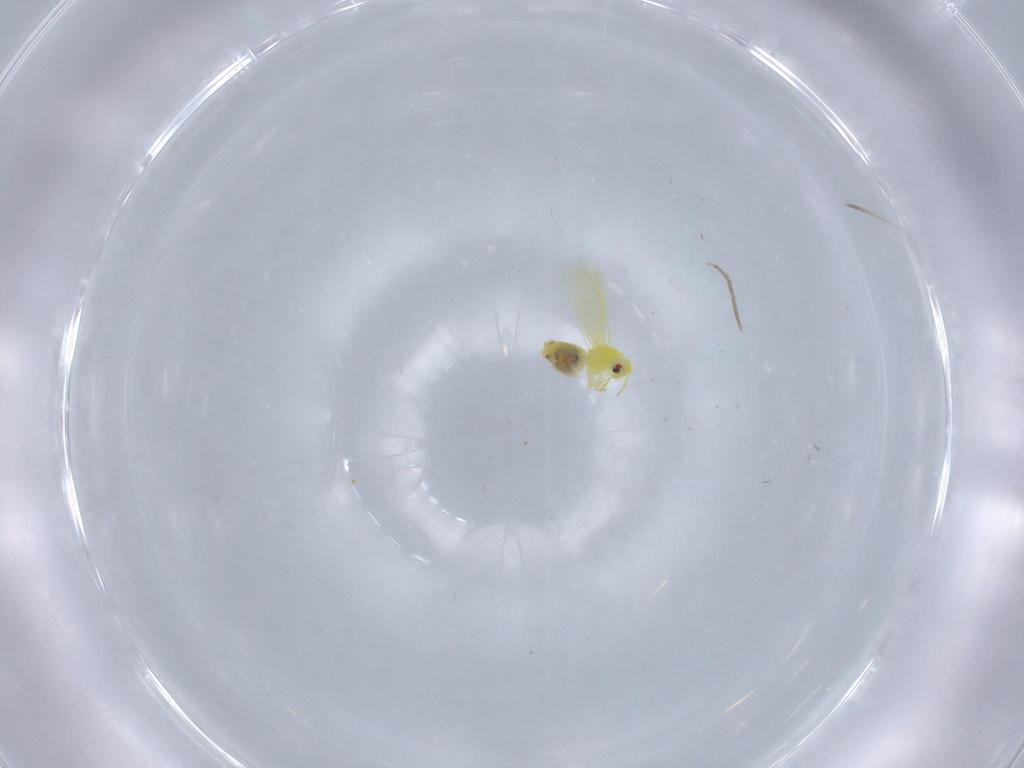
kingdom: Animalia
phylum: Arthropoda
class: Insecta
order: Hemiptera
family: Aleyrodidae
